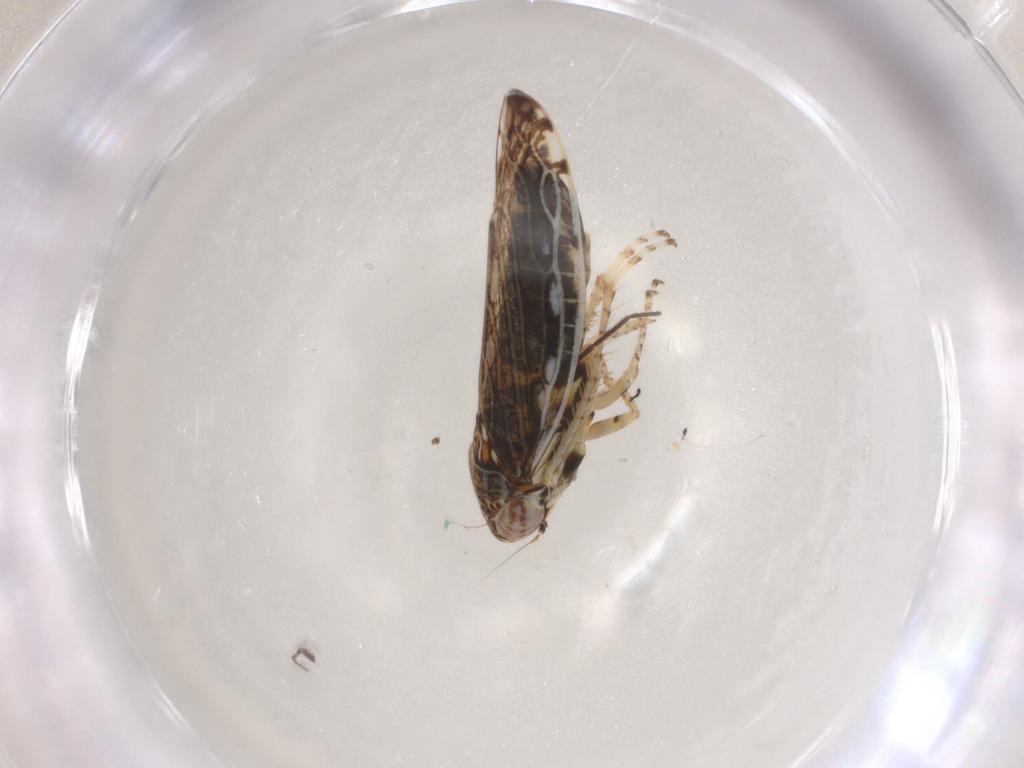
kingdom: Animalia
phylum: Arthropoda
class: Insecta
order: Hemiptera
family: Cicadellidae
